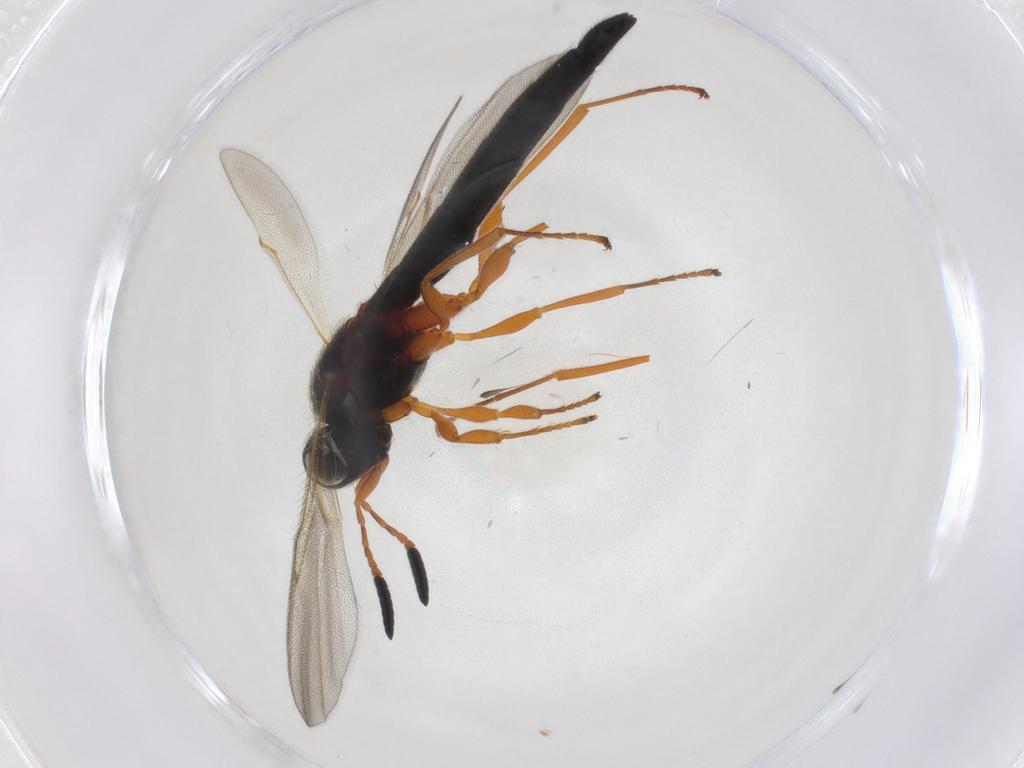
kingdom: Animalia
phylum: Arthropoda
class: Insecta
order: Hymenoptera
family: Scelionidae
